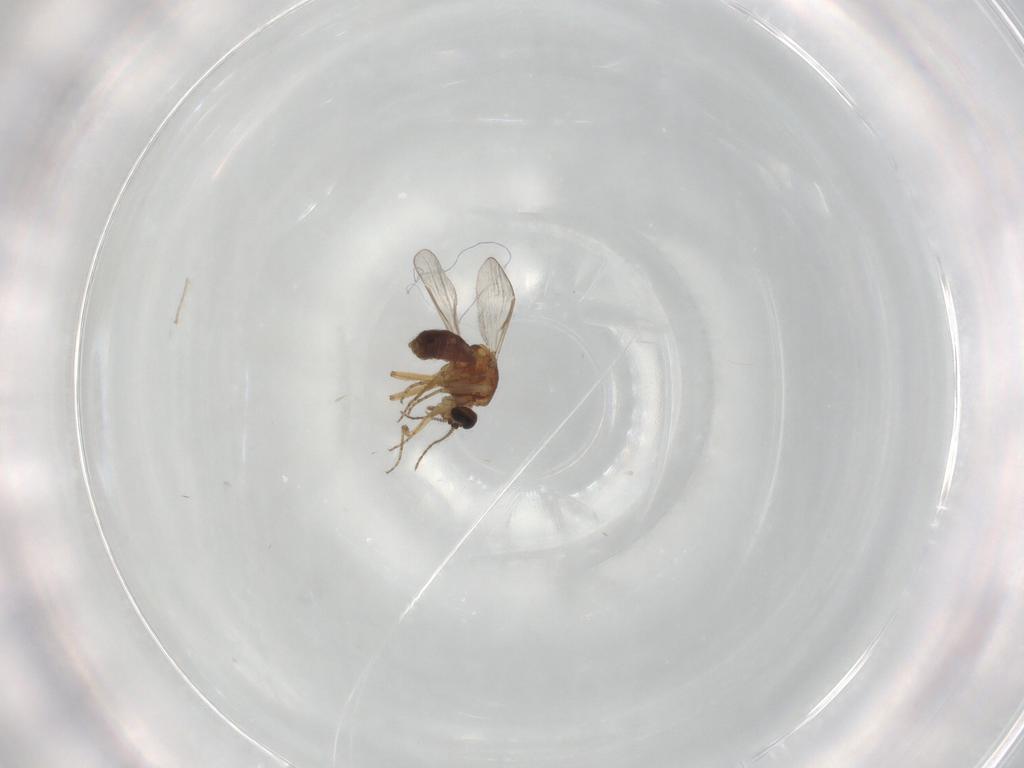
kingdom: Animalia
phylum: Arthropoda
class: Insecta
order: Diptera
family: Ceratopogonidae
